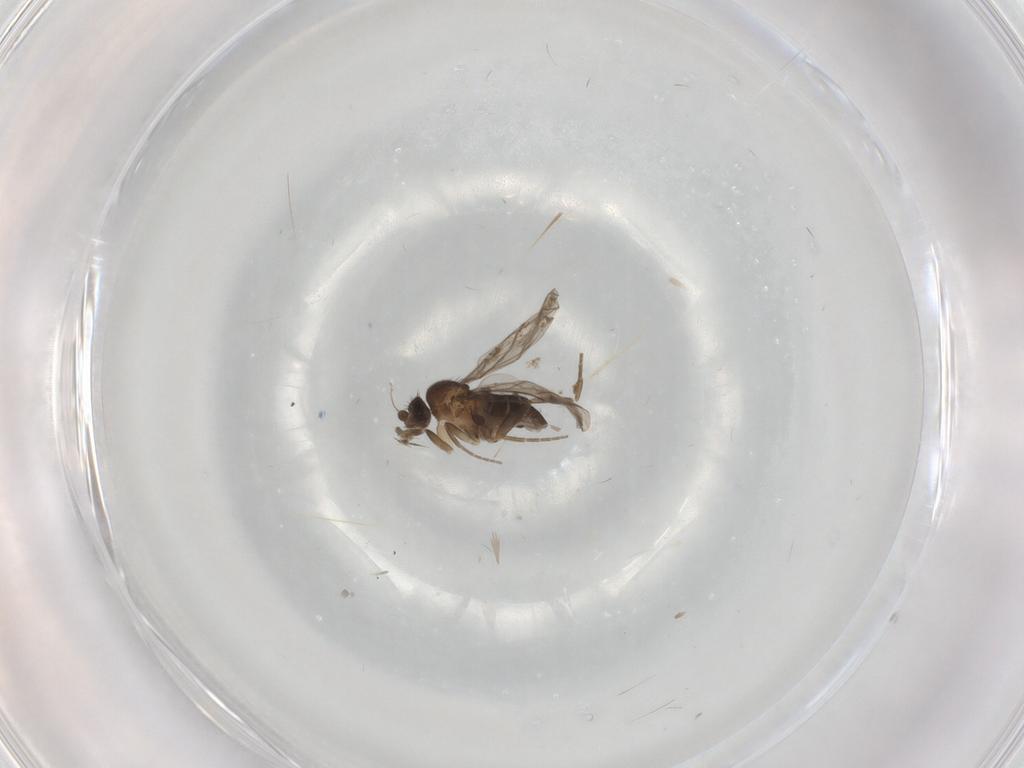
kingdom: Animalia
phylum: Arthropoda
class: Insecta
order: Diptera
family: Cecidomyiidae
